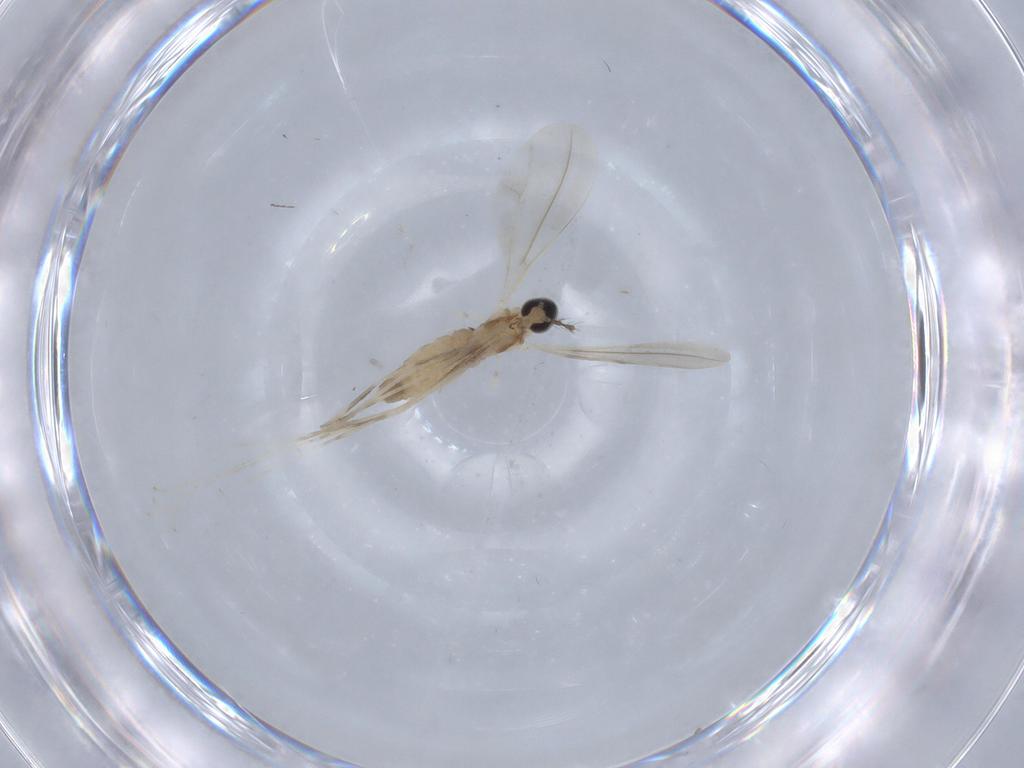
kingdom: Animalia
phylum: Arthropoda
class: Insecta
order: Diptera
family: Cecidomyiidae
